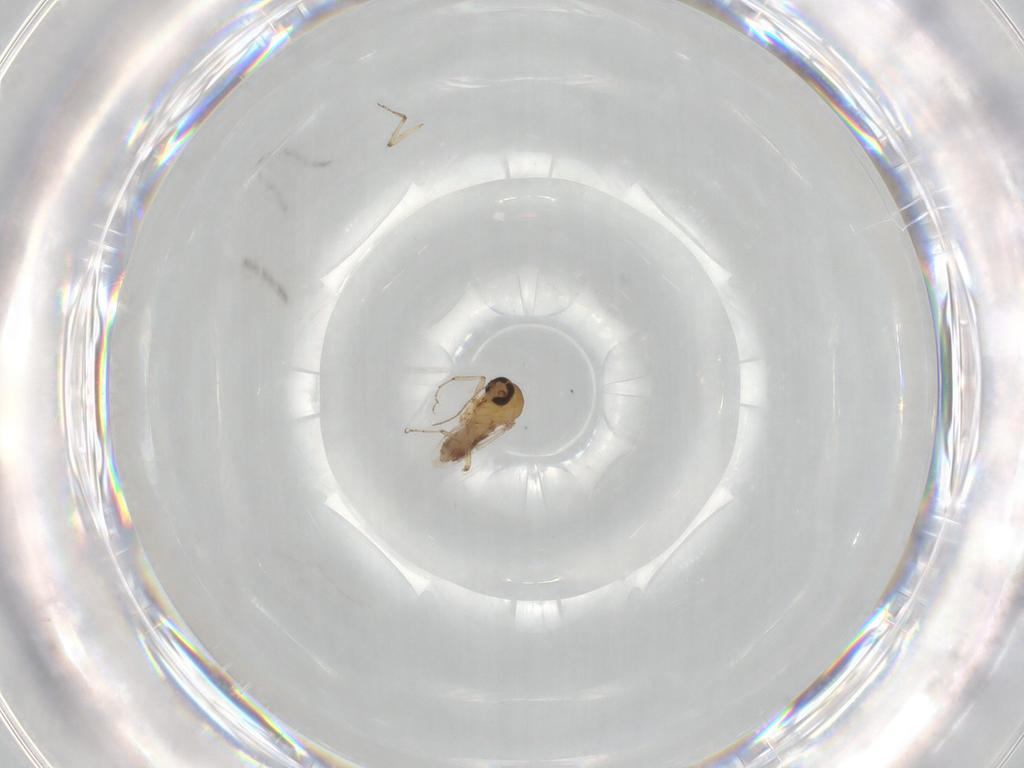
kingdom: Animalia
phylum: Arthropoda
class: Insecta
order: Diptera
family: Ceratopogonidae
